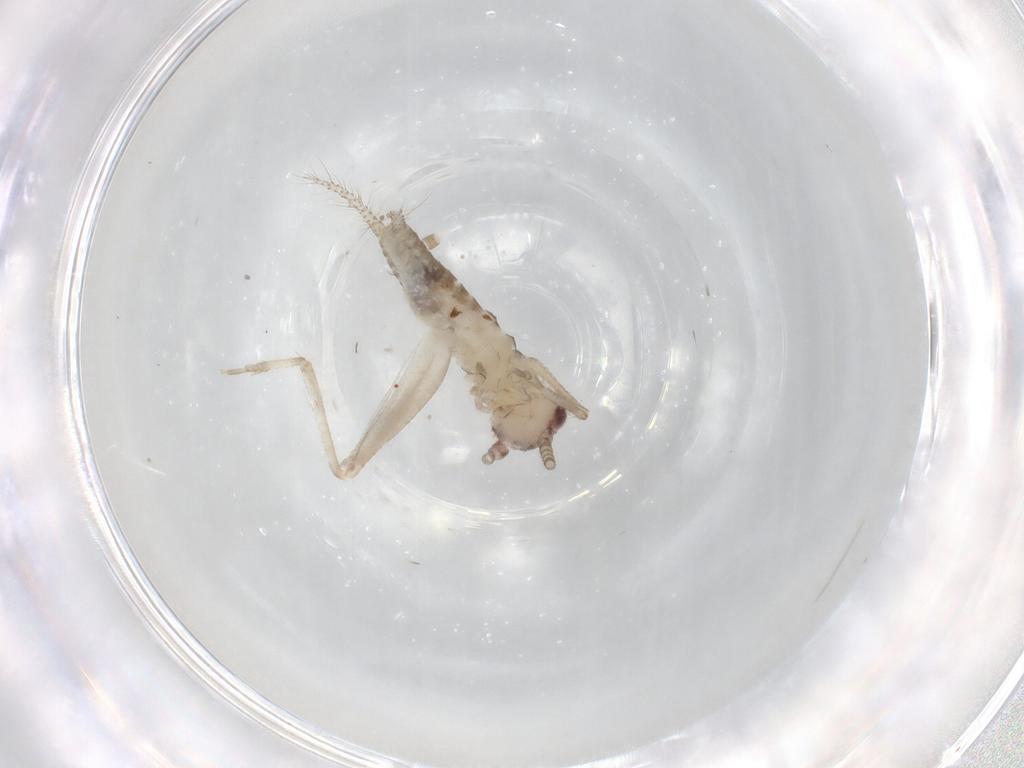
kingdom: Animalia
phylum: Arthropoda
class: Insecta
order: Orthoptera
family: Gryllidae
